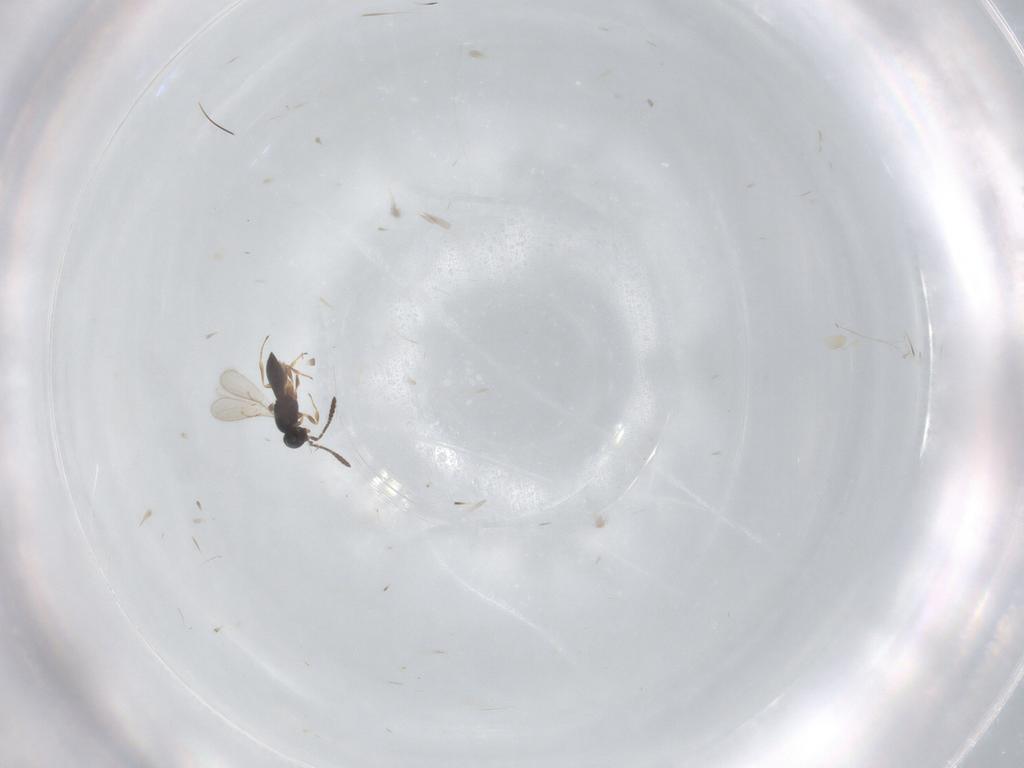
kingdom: Animalia
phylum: Arthropoda
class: Insecta
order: Hymenoptera
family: Scelionidae
